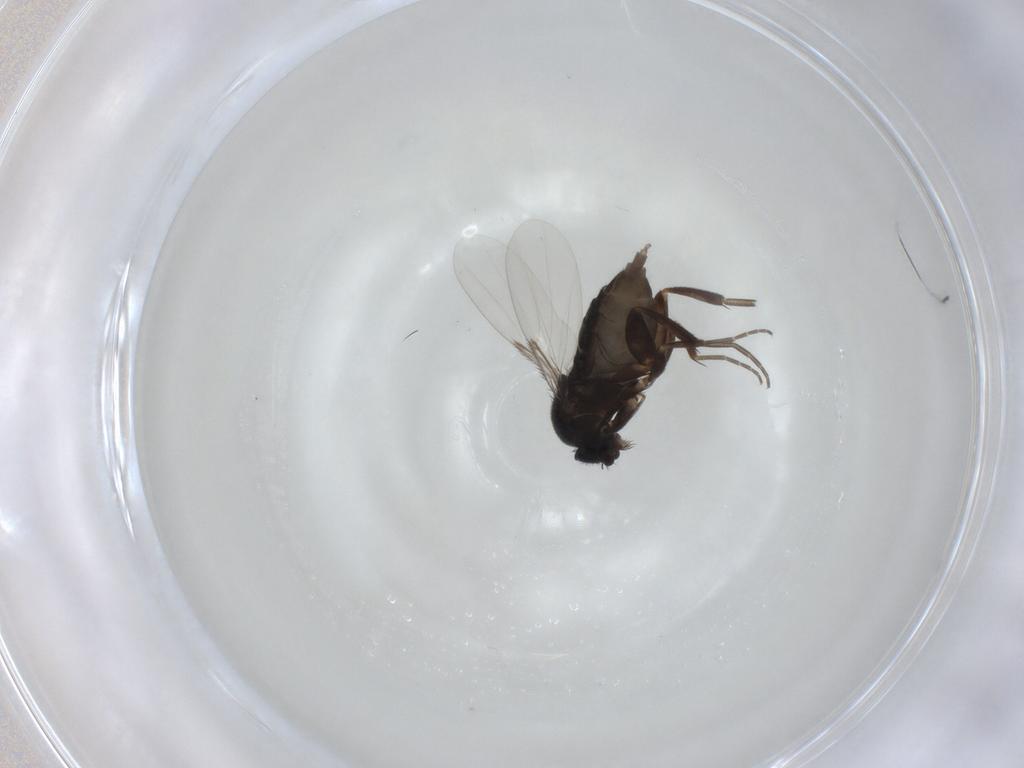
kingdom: Animalia
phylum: Arthropoda
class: Insecta
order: Diptera
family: Phoridae
